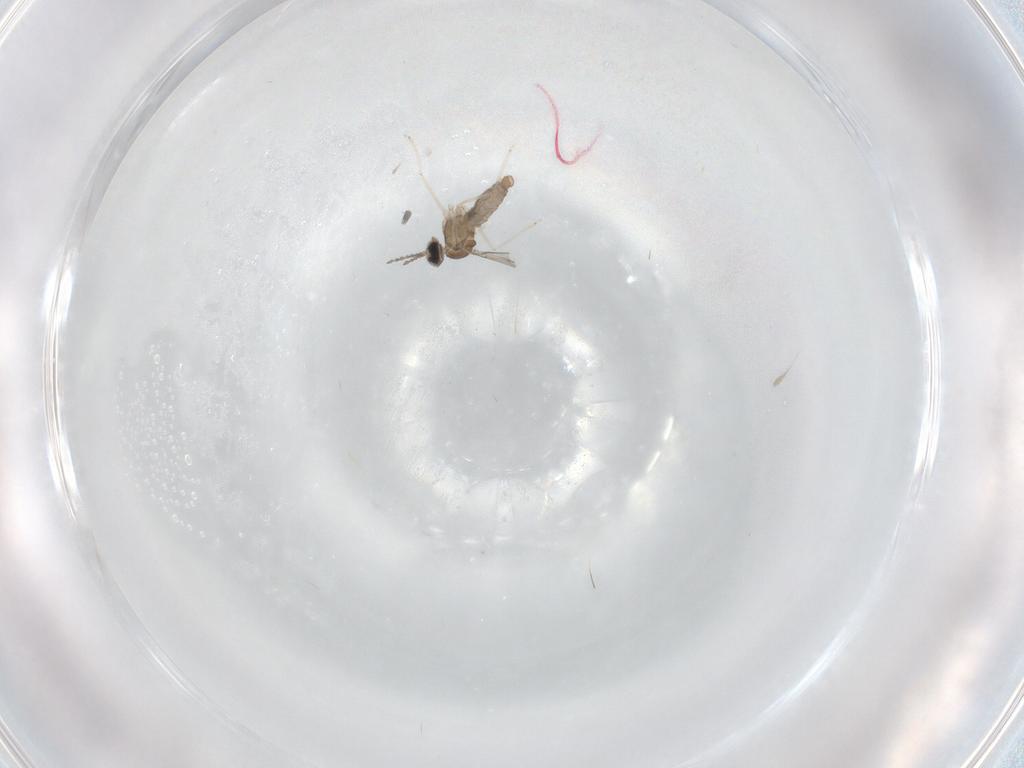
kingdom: Animalia
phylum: Arthropoda
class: Insecta
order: Diptera
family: Cecidomyiidae
